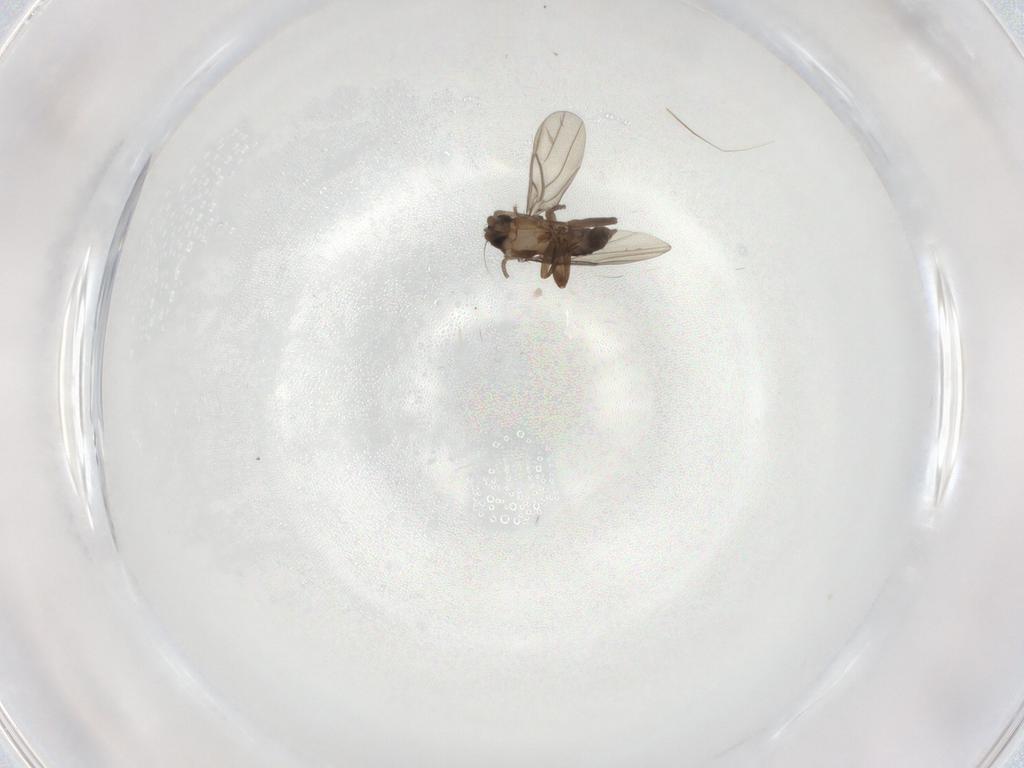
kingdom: Animalia
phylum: Arthropoda
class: Insecta
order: Diptera
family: Sphaeroceridae
